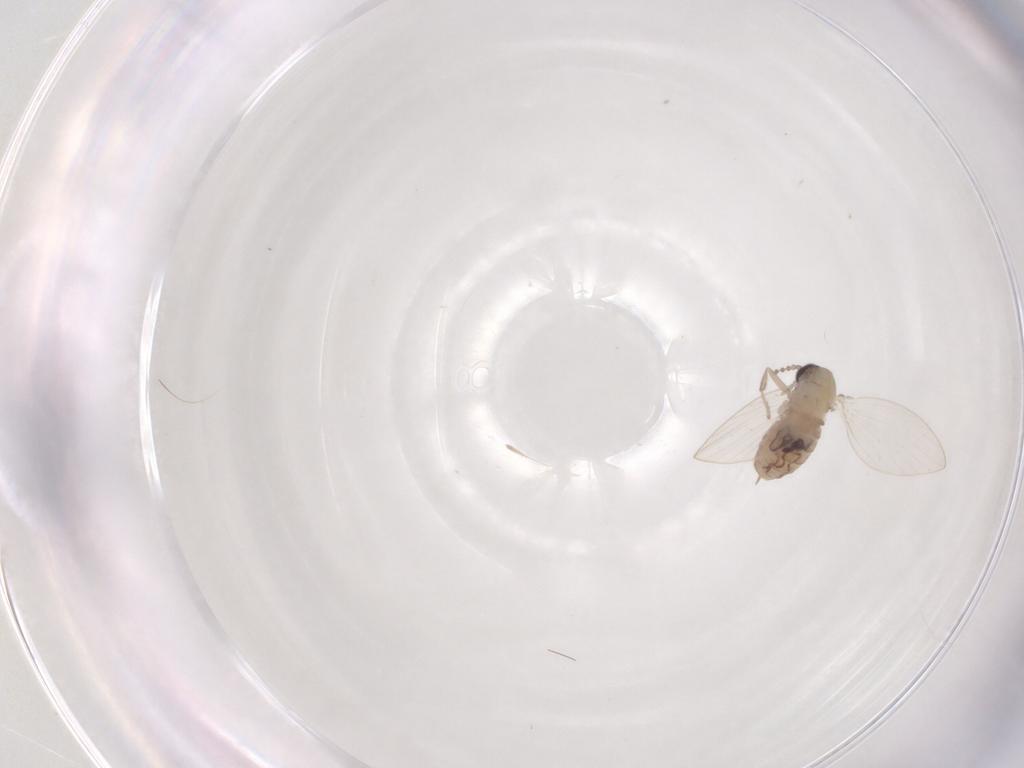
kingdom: Animalia
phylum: Arthropoda
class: Insecta
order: Diptera
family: Psychodidae
